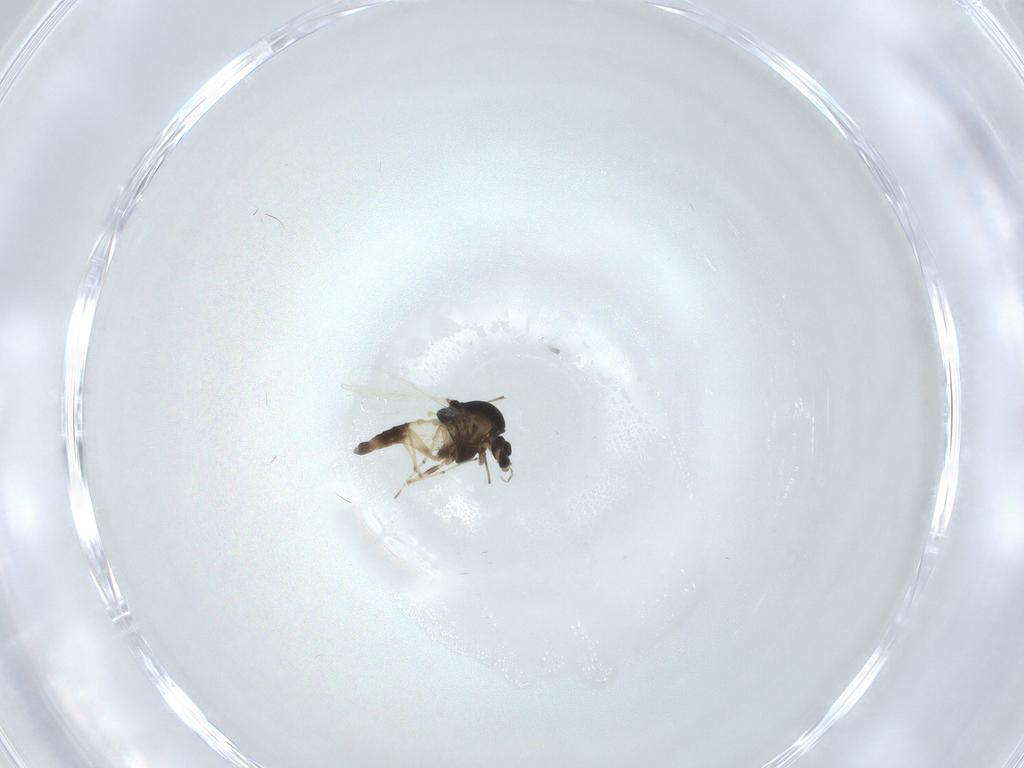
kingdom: Animalia
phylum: Arthropoda
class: Insecta
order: Diptera
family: Chironomidae
